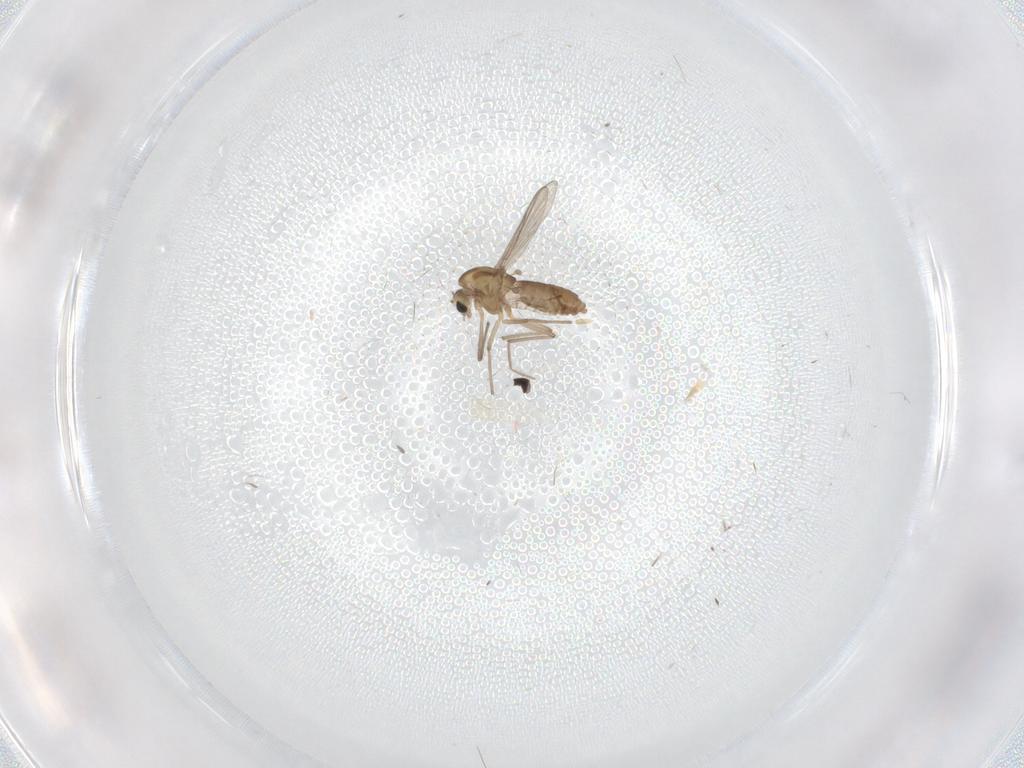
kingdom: Animalia
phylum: Arthropoda
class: Insecta
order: Diptera
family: Chironomidae
